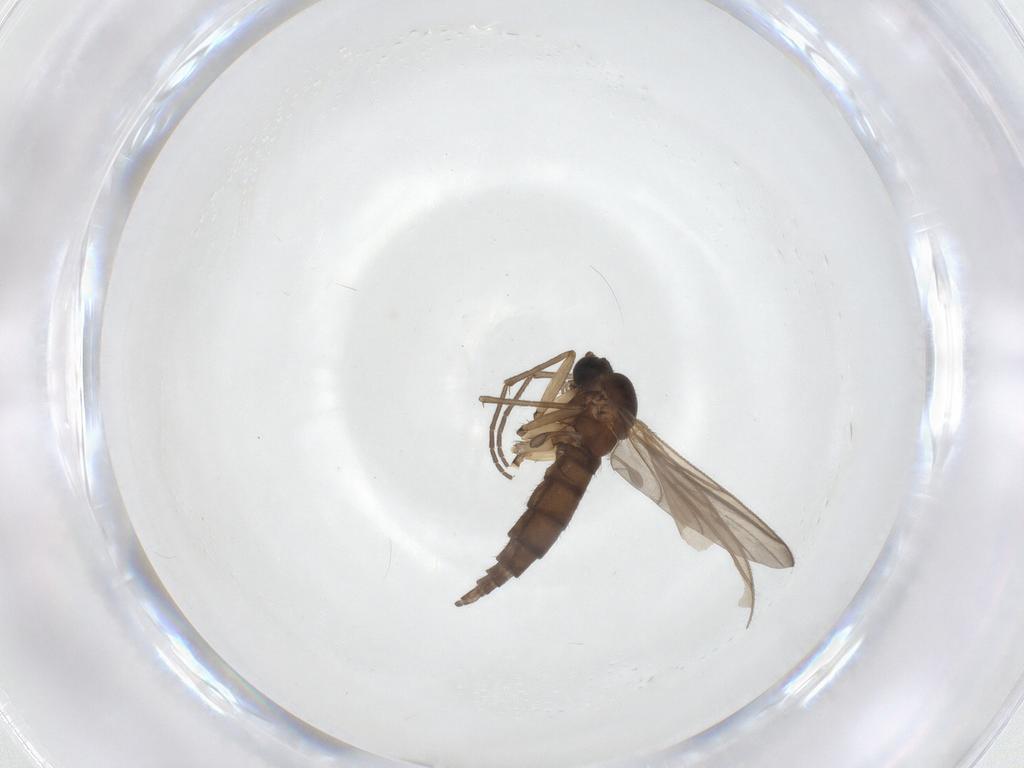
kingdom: Animalia
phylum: Arthropoda
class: Insecta
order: Diptera
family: Sciaridae
